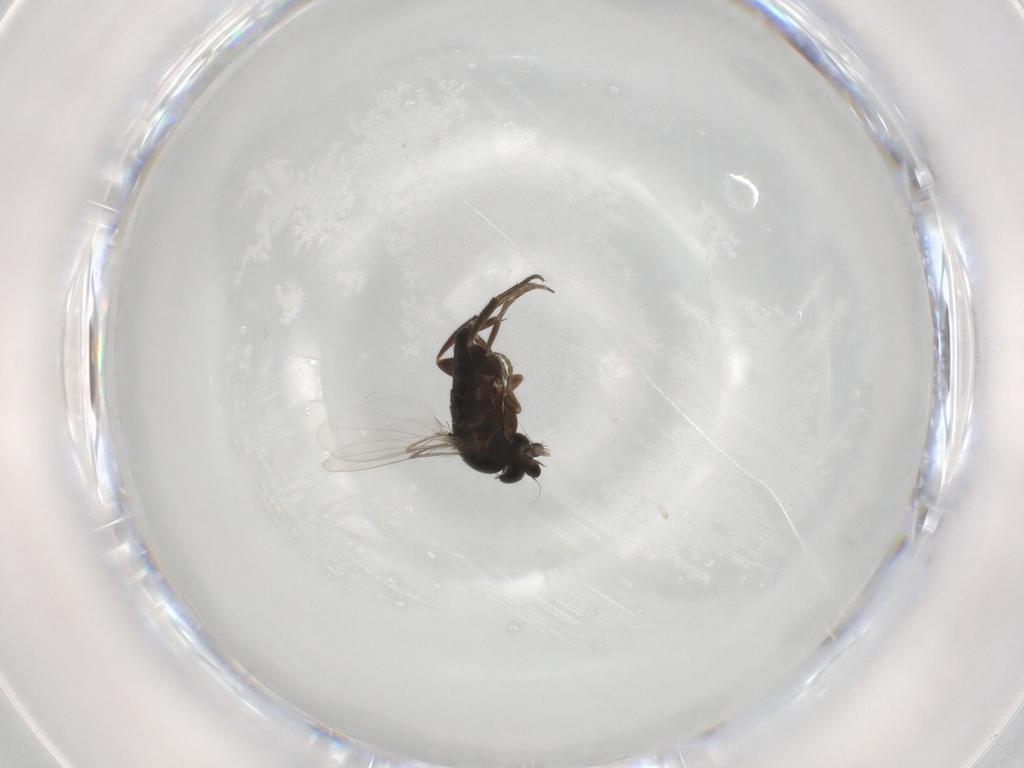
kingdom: Animalia
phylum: Arthropoda
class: Insecta
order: Diptera
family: Phoridae
